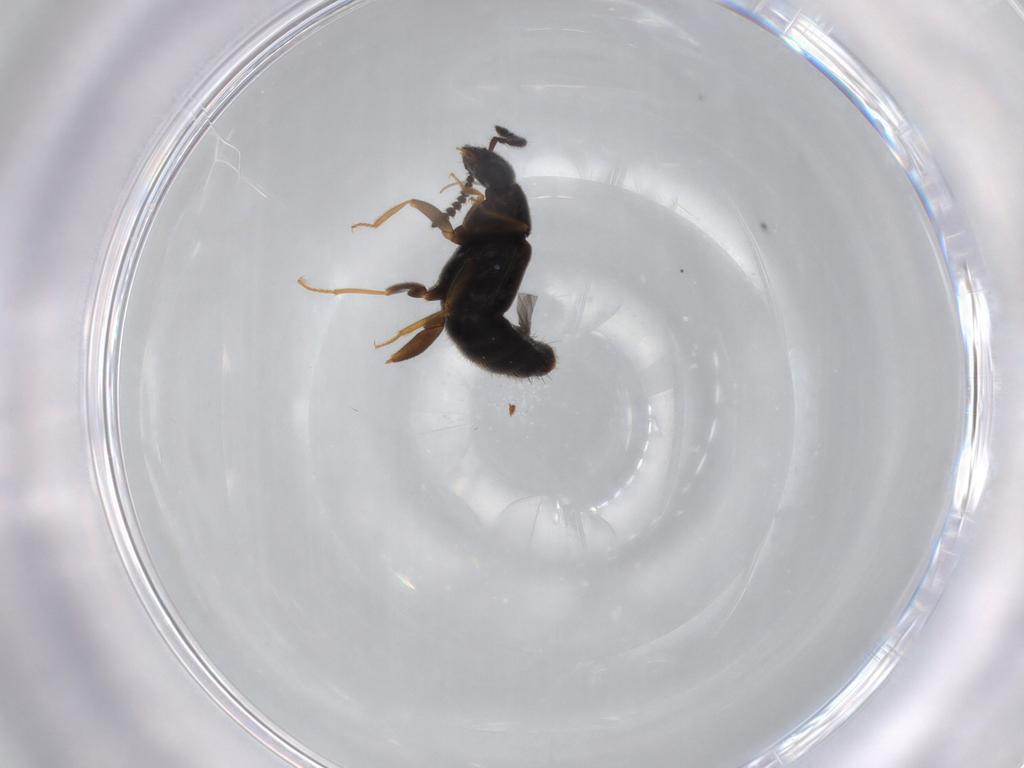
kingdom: Animalia
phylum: Arthropoda
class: Insecta
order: Coleoptera
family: Staphylinidae
